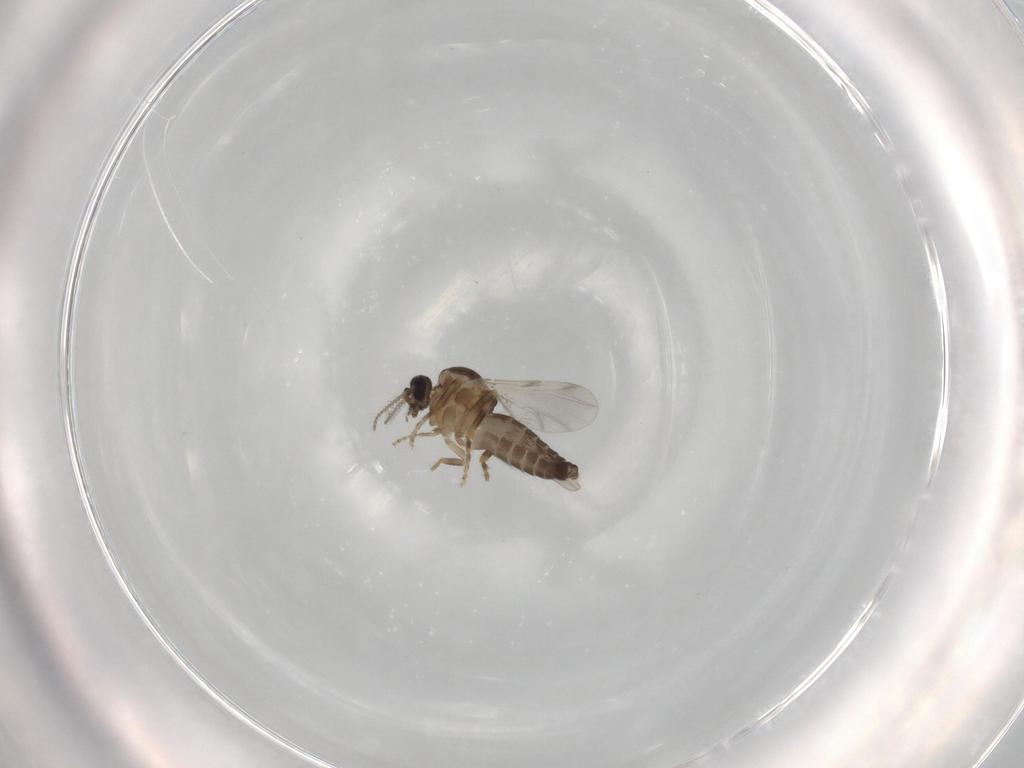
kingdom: Animalia
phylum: Arthropoda
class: Insecta
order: Diptera
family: Ceratopogonidae
